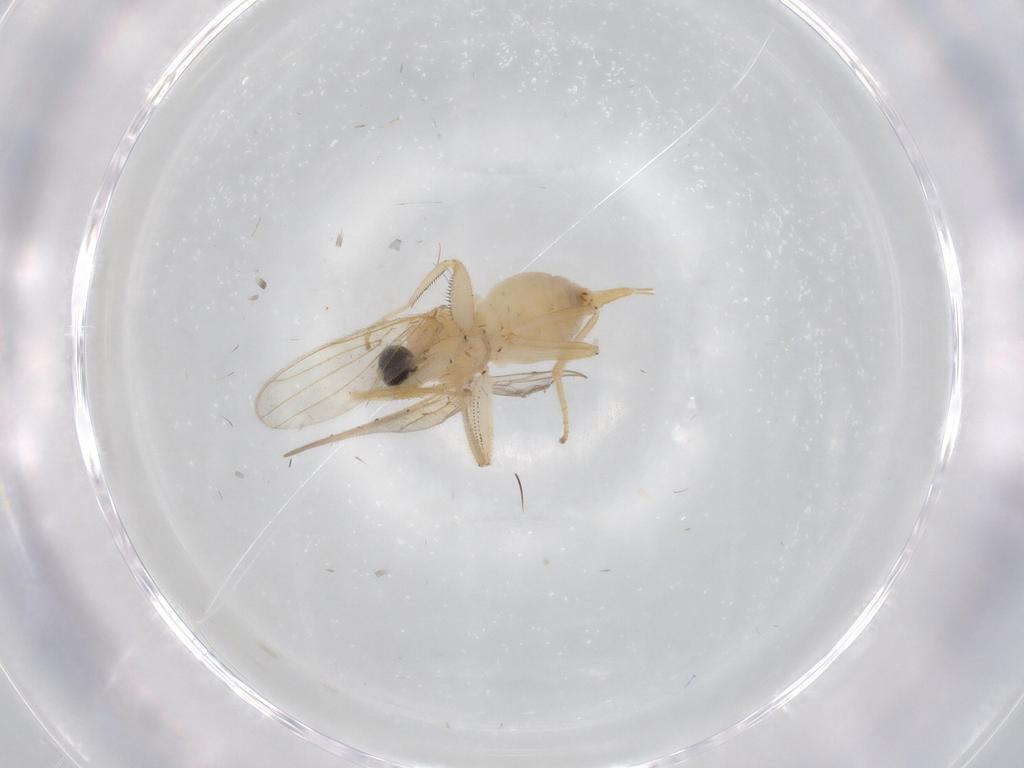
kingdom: Animalia
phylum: Arthropoda
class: Insecta
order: Diptera
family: Hybotidae
